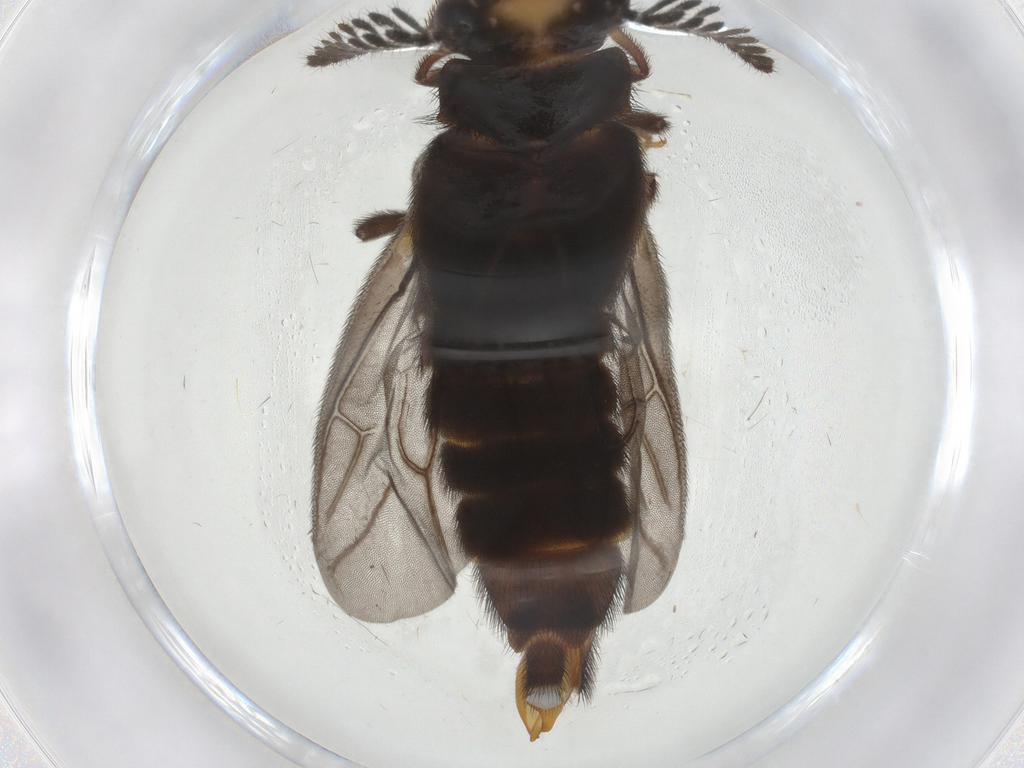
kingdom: Animalia
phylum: Arthropoda
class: Insecta
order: Coleoptera
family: Phengodidae
